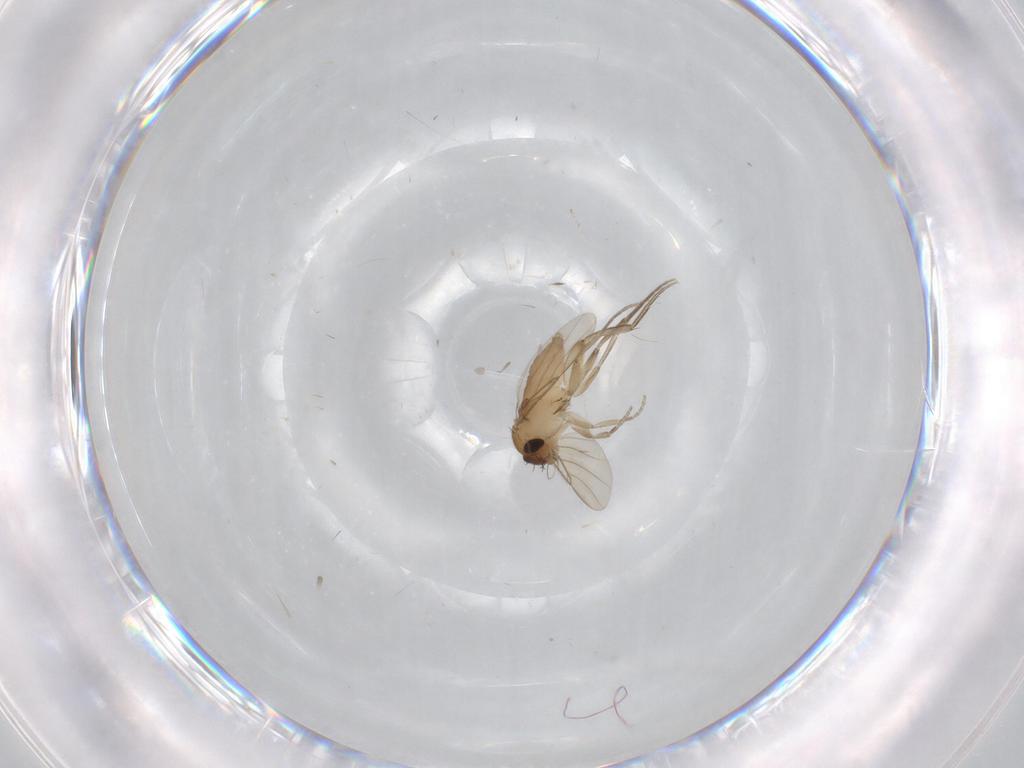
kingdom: Animalia
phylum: Arthropoda
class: Insecta
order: Diptera
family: Phoridae
